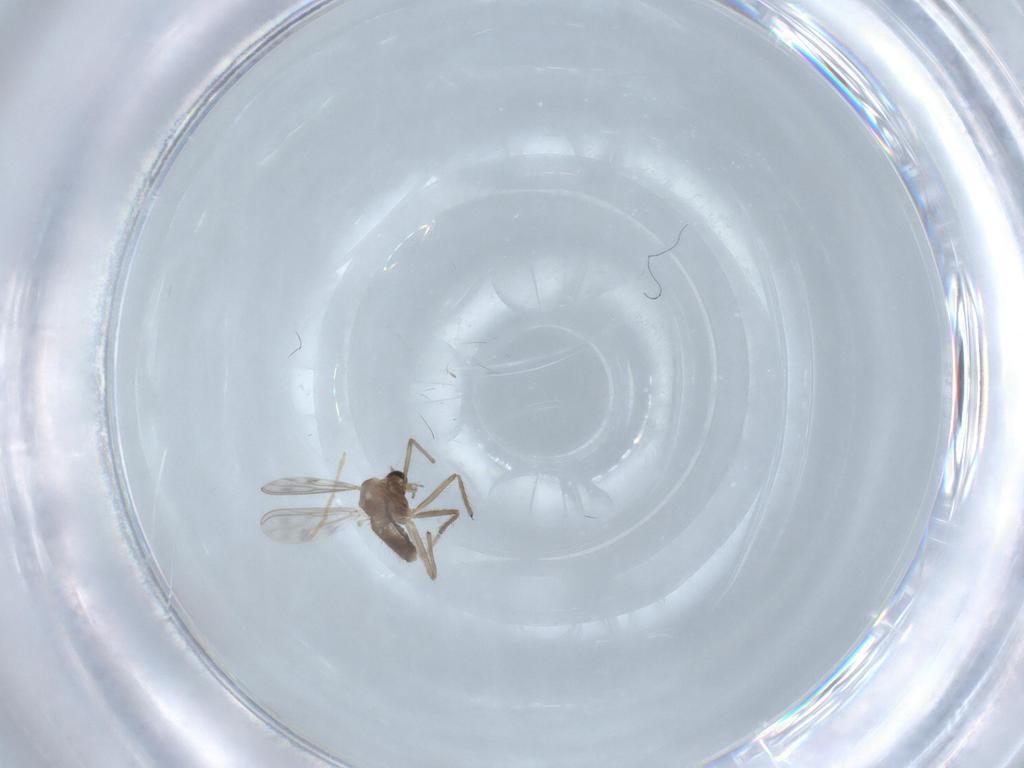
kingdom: Animalia
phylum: Arthropoda
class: Insecta
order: Diptera
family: Chironomidae
